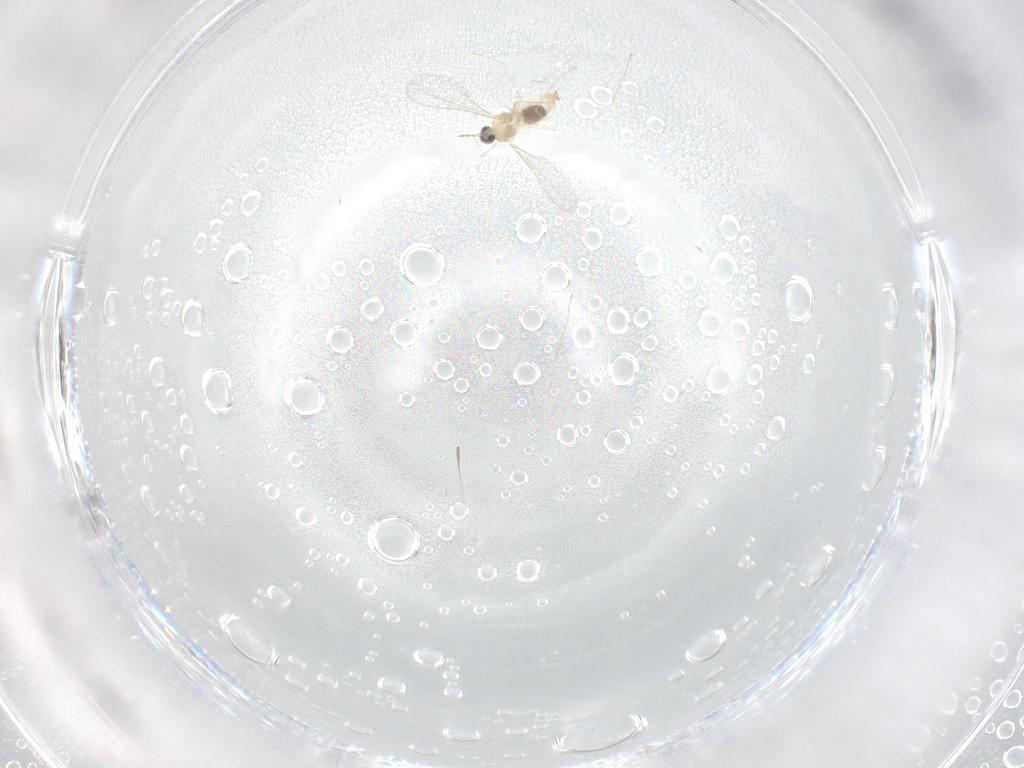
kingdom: Animalia
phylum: Arthropoda
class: Insecta
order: Diptera
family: Cecidomyiidae
